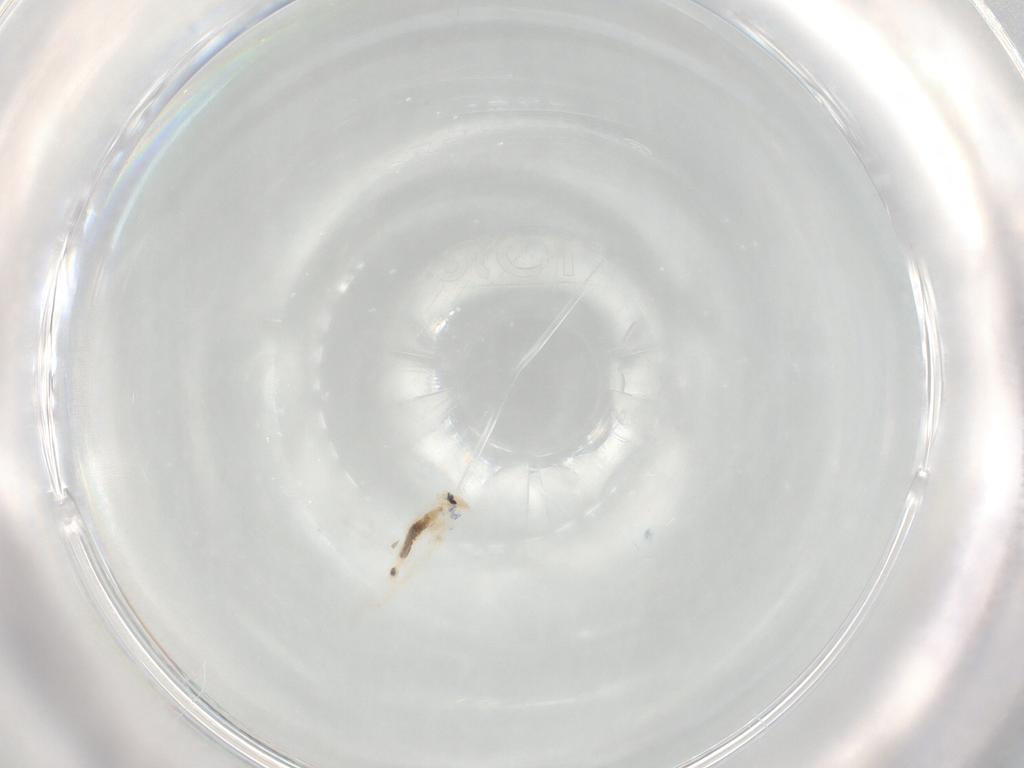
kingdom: Animalia
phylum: Arthropoda
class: Collembola
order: Entomobryomorpha
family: Entomobryidae
